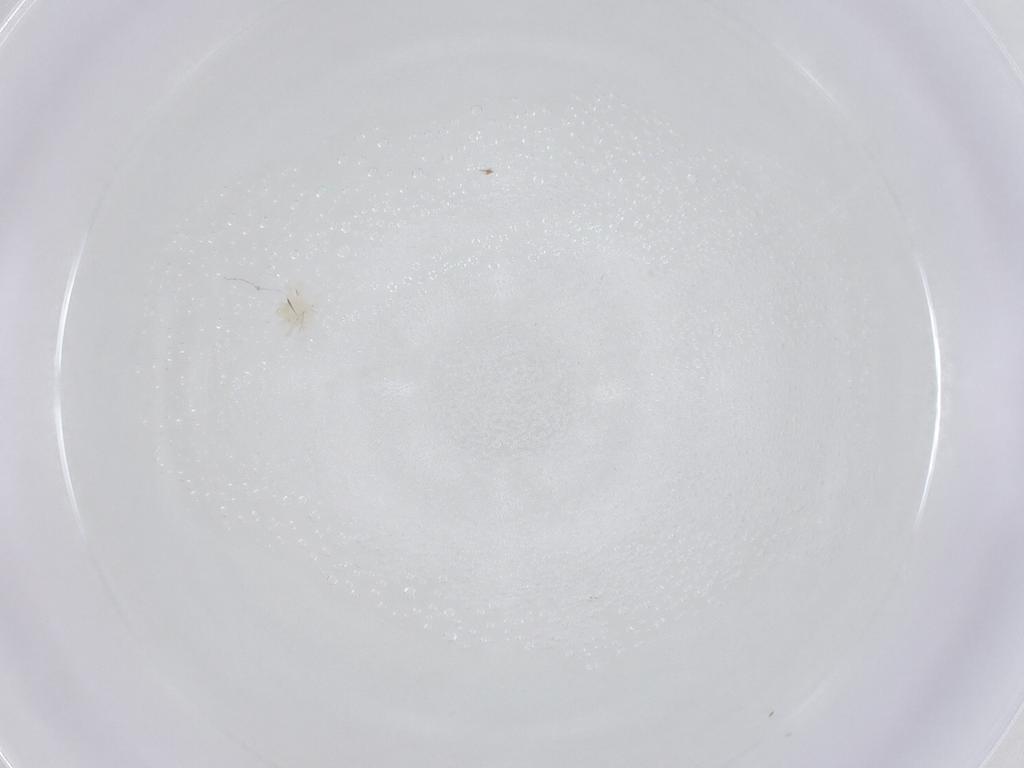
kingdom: Animalia
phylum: Arthropoda
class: Arachnida
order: Trombidiformes
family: Anystidae
